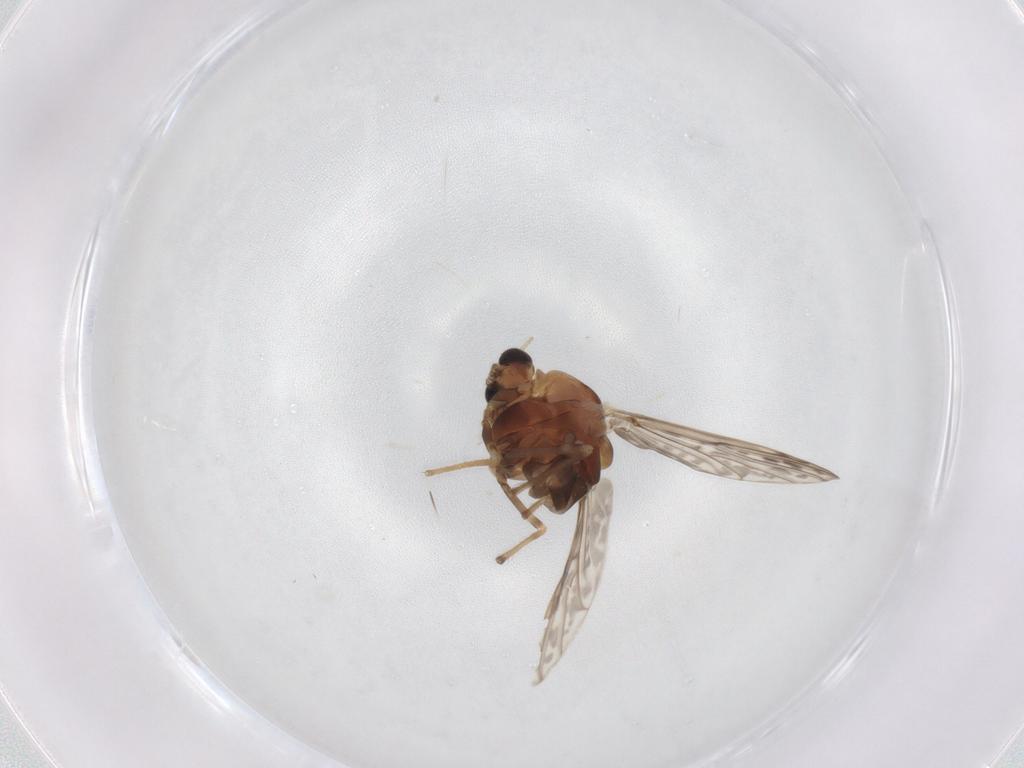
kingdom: Animalia
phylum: Arthropoda
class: Insecta
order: Diptera
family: Chironomidae
